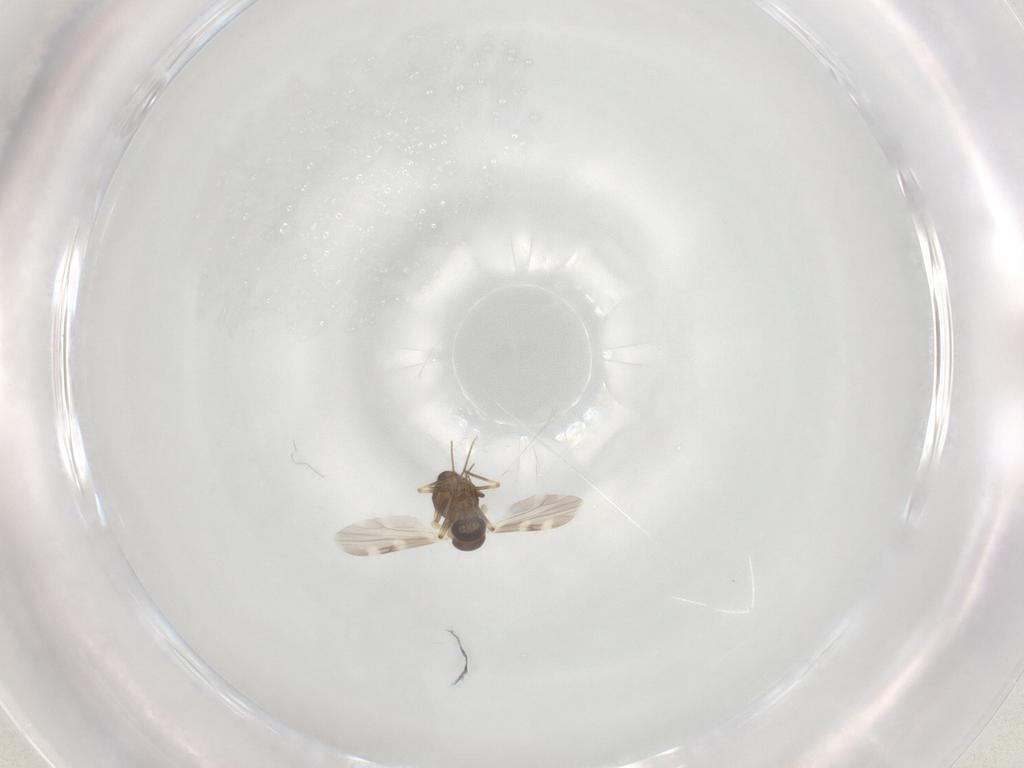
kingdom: Animalia
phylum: Arthropoda
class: Insecta
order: Diptera
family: Ceratopogonidae
